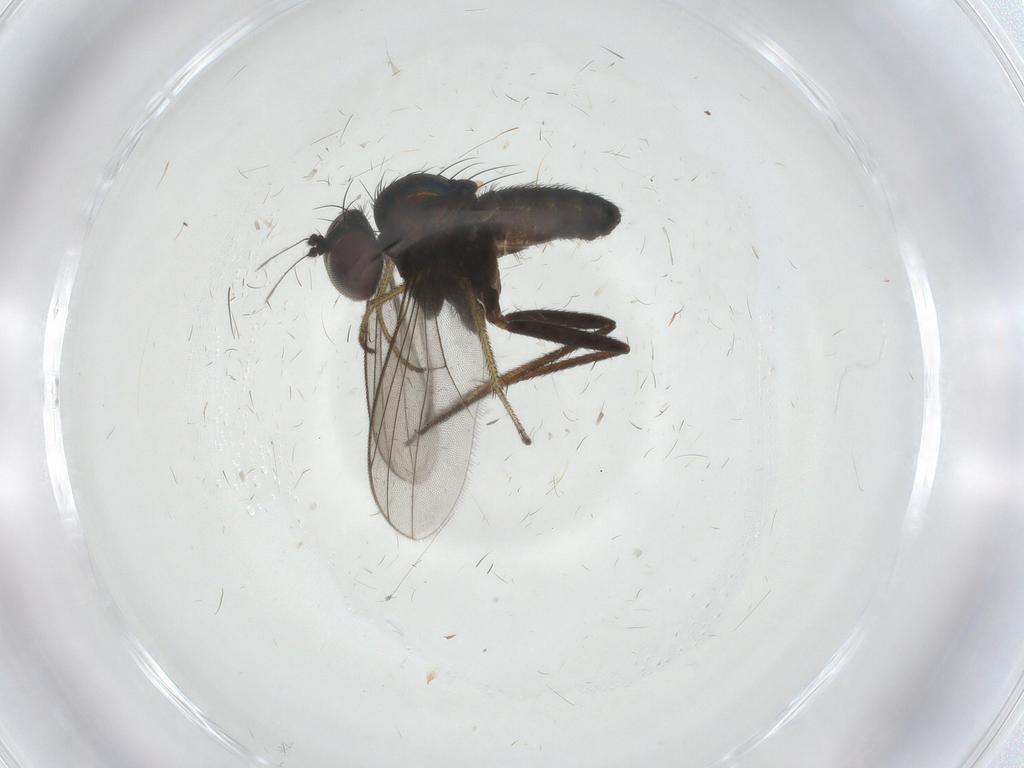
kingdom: Animalia
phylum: Arthropoda
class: Insecta
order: Diptera
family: Dolichopodidae
